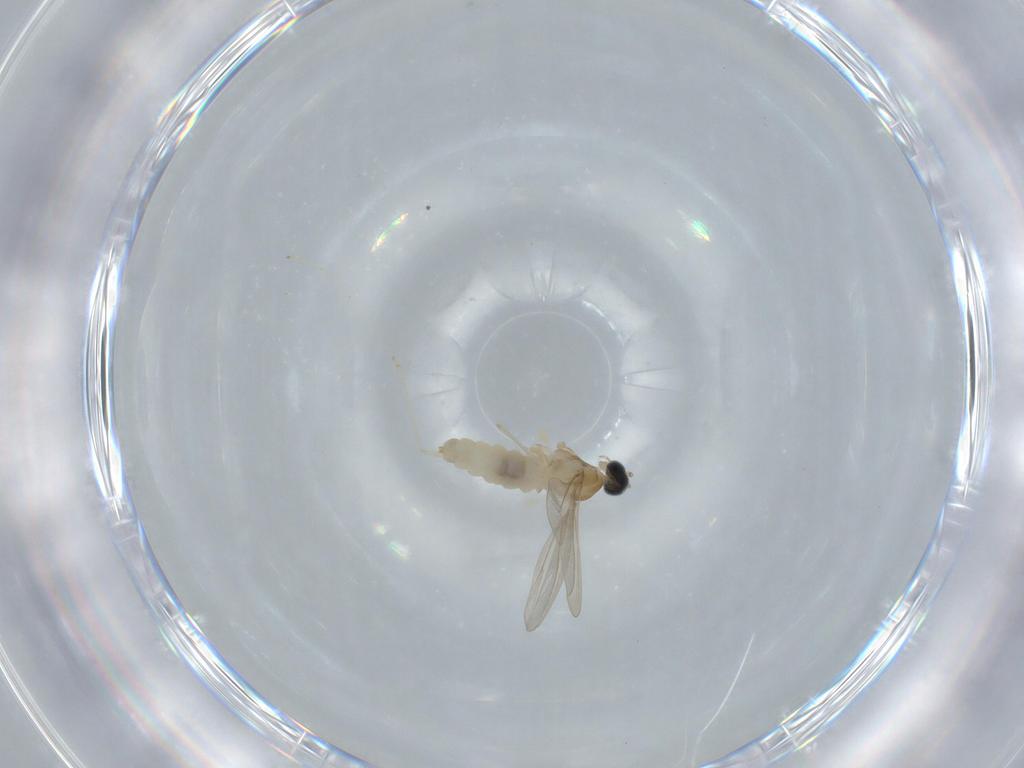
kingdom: Animalia
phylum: Arthropoda
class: Insecta
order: Diptera
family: Cecidomyiidae
